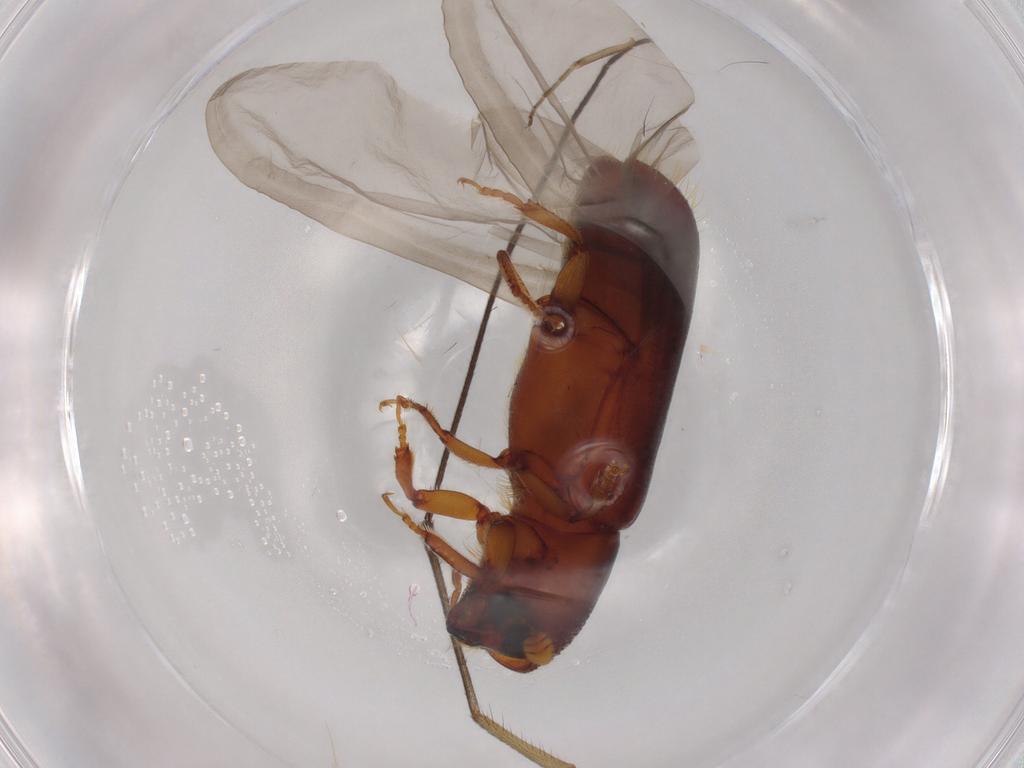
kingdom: Animalia
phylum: Arthropoda
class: Insecta
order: Coleoptera
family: Curculionidae
